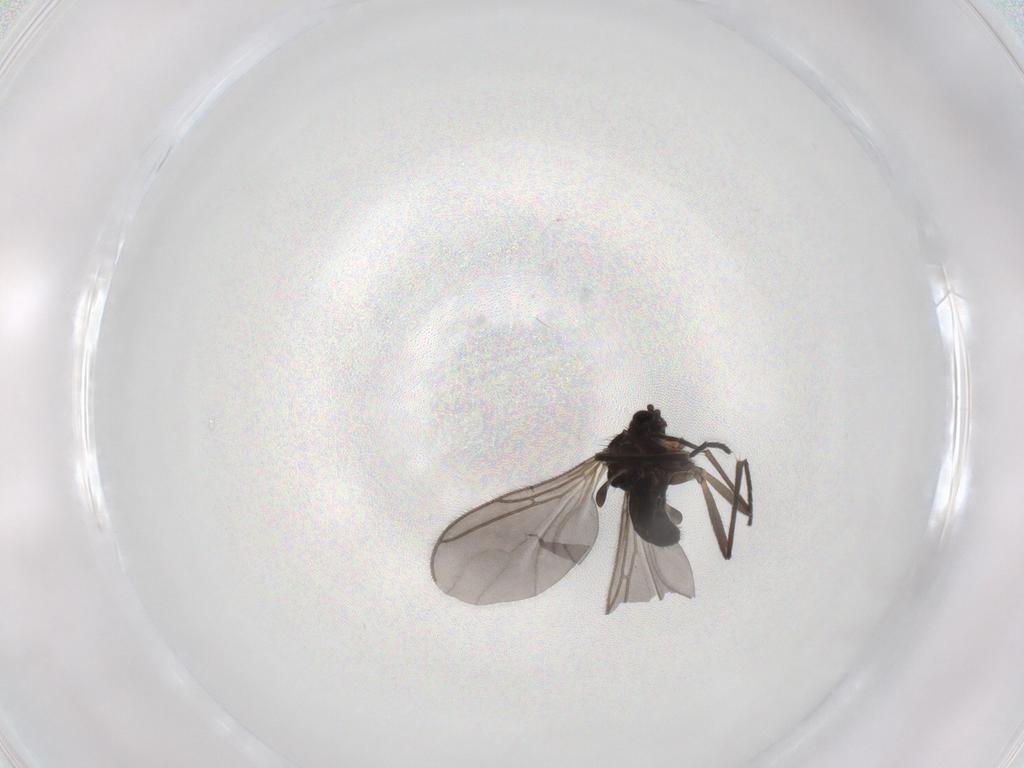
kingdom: Animalia
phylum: Arthropoda
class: Insecta
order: Diptera
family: Sciaridae
